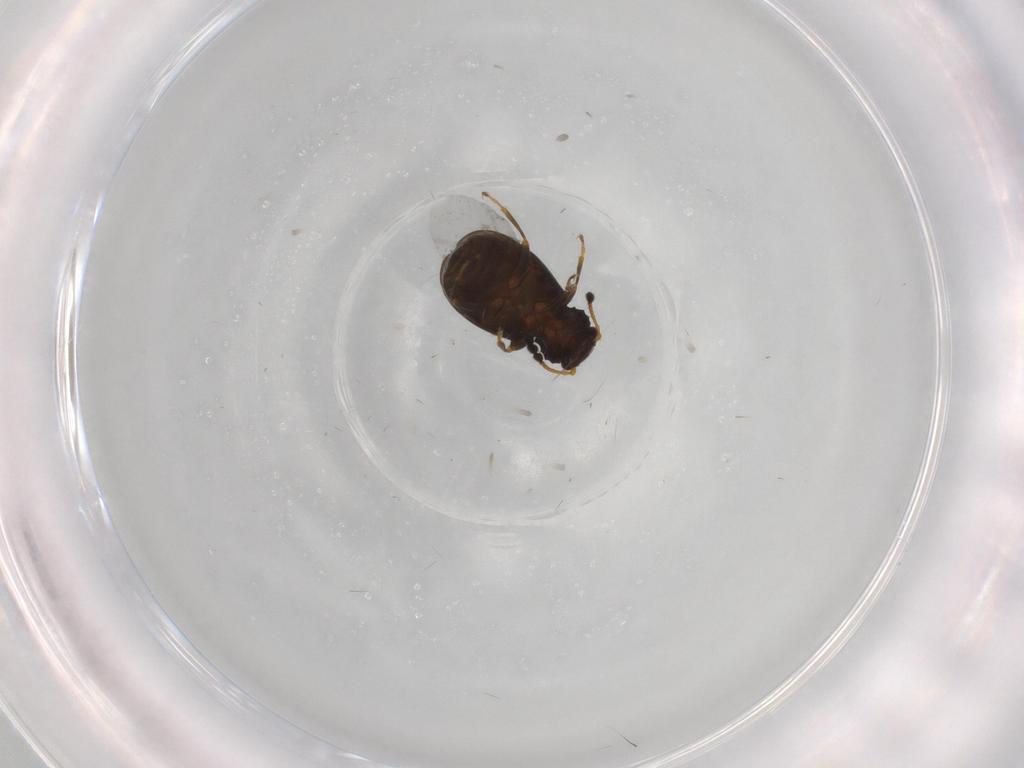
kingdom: Animalia
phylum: Arthropoda
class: Insecta
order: Coleoptera
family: Salpingidae
